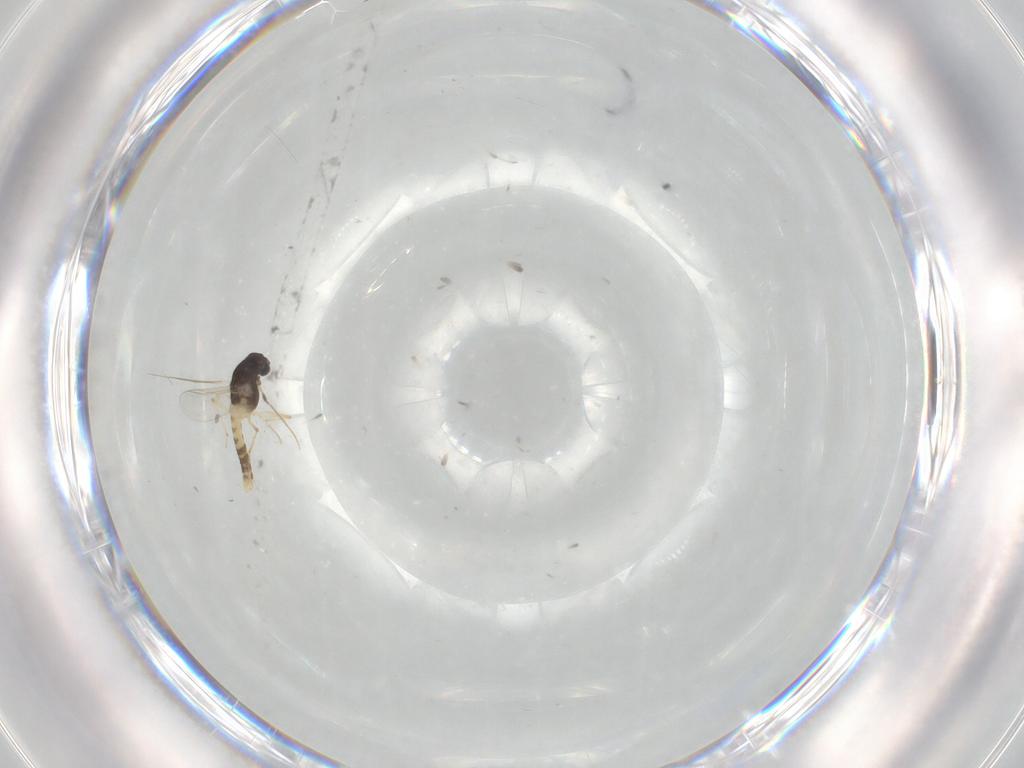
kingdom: Animalia
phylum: Arthropoda
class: Insecta
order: Diptera
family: Chironomidae
